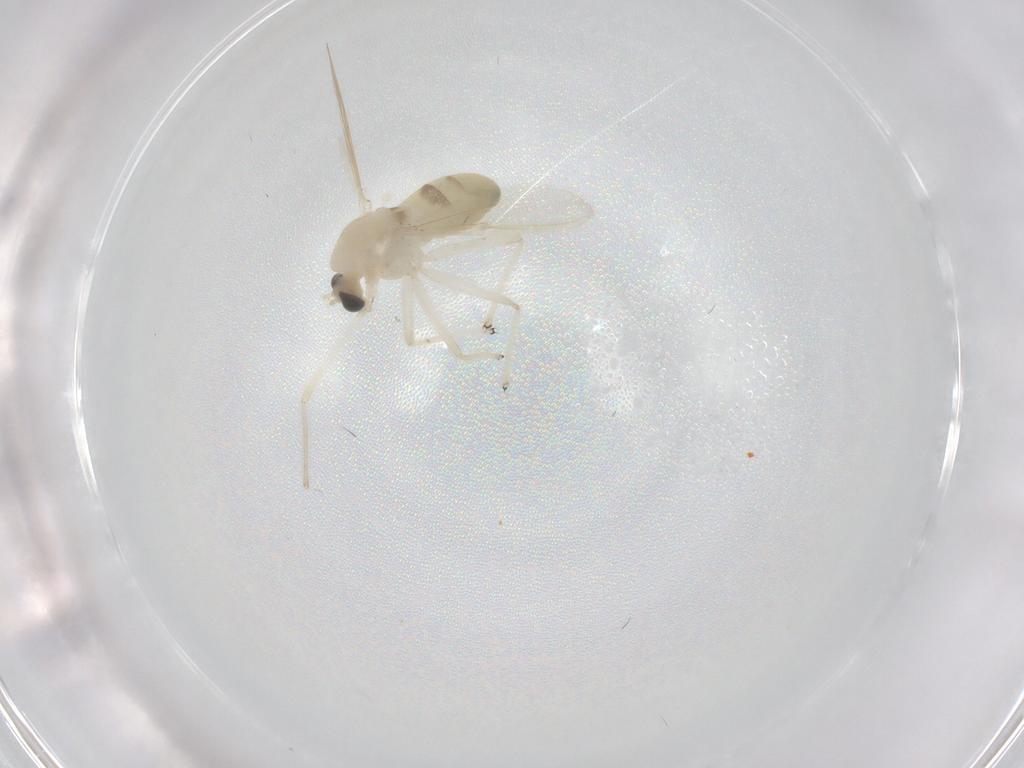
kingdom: Animalia
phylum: Arthropoda
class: Insecta
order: Diptera
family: Chironomidae
